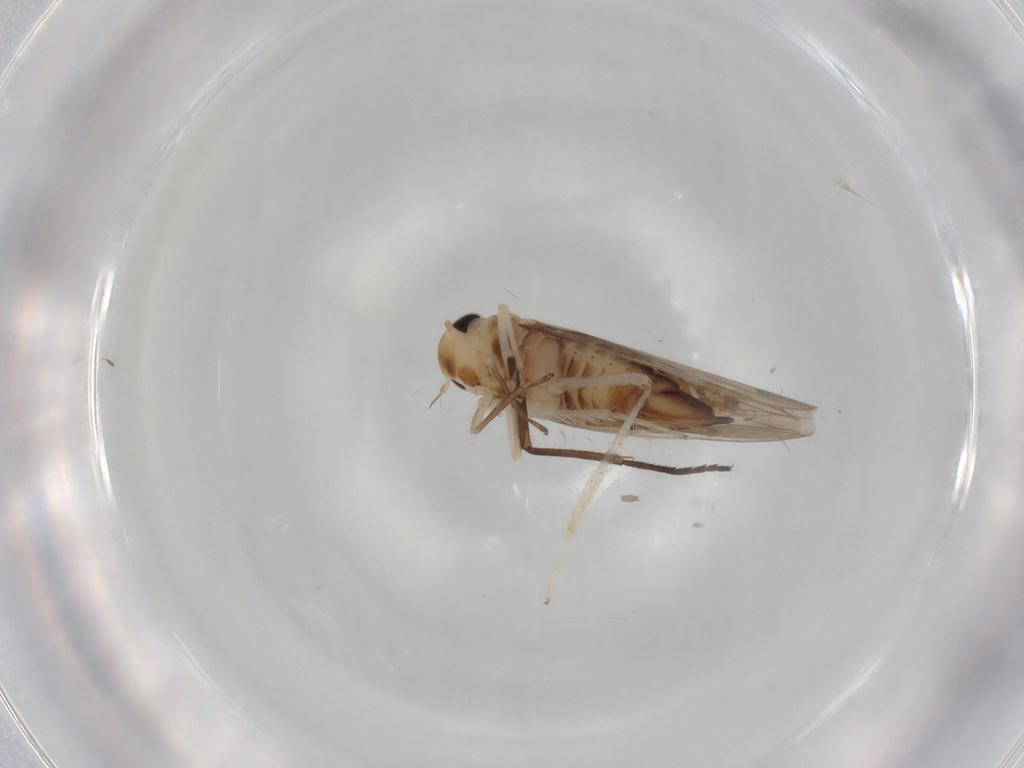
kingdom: Animalia
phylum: Arthropoda
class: Insecta
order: Hemiptera
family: Cicadellidae
